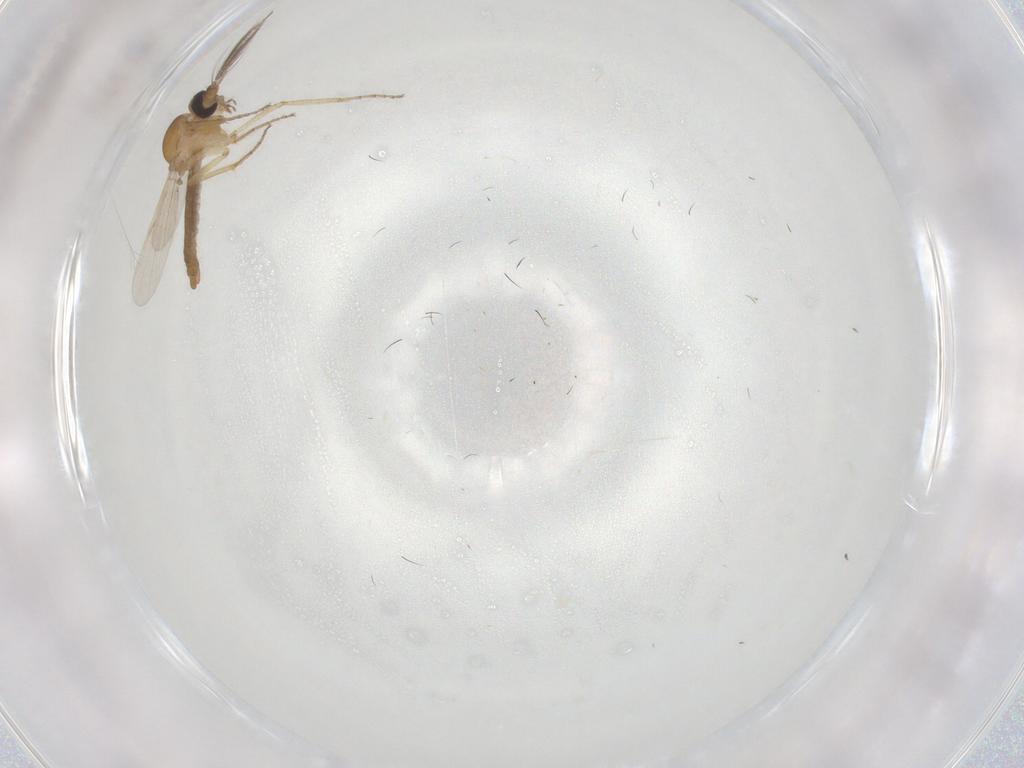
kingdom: Animalia
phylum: Arthropoda
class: Insecta
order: Diptera
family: Ceratopogonidae
